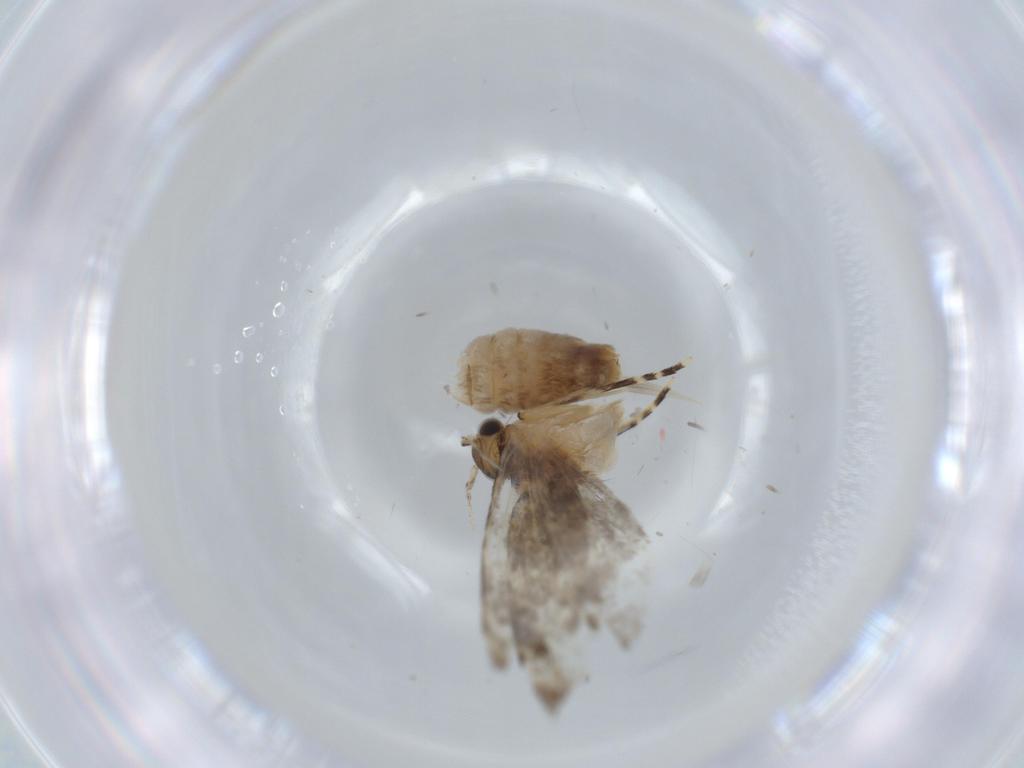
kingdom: Animalia
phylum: Arthropoda
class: Insecta
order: Lepidoptera
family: Tineidae
